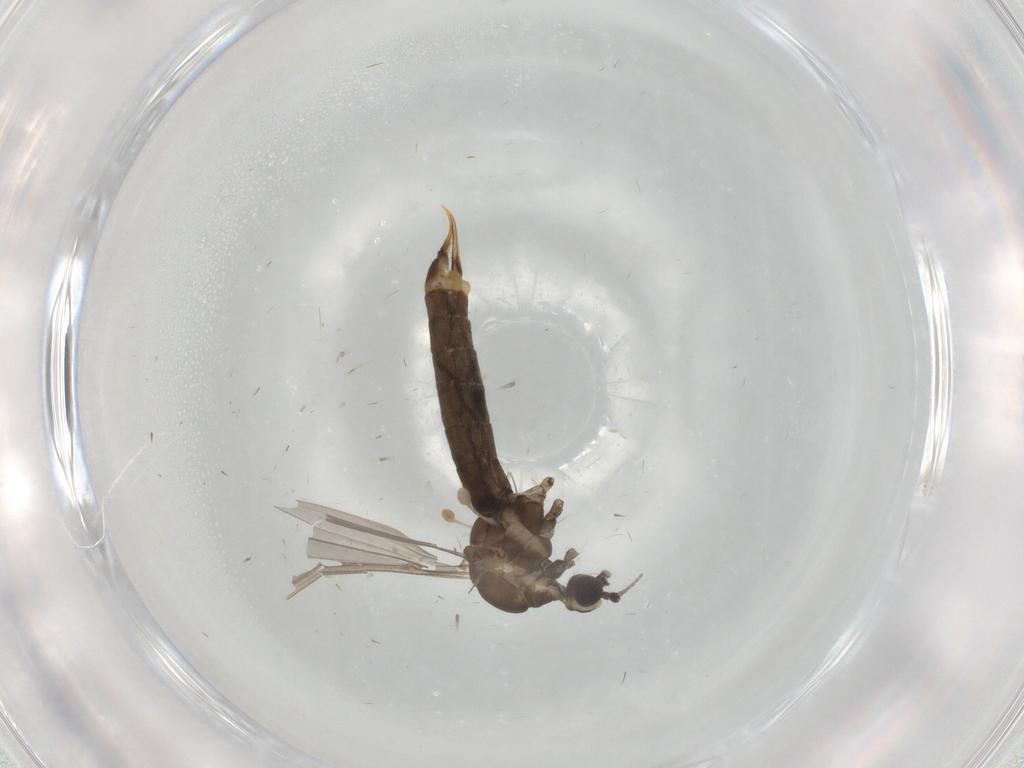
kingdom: Animalia
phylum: Arthropoda
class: Insecta
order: Diptera
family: Limoniidae
